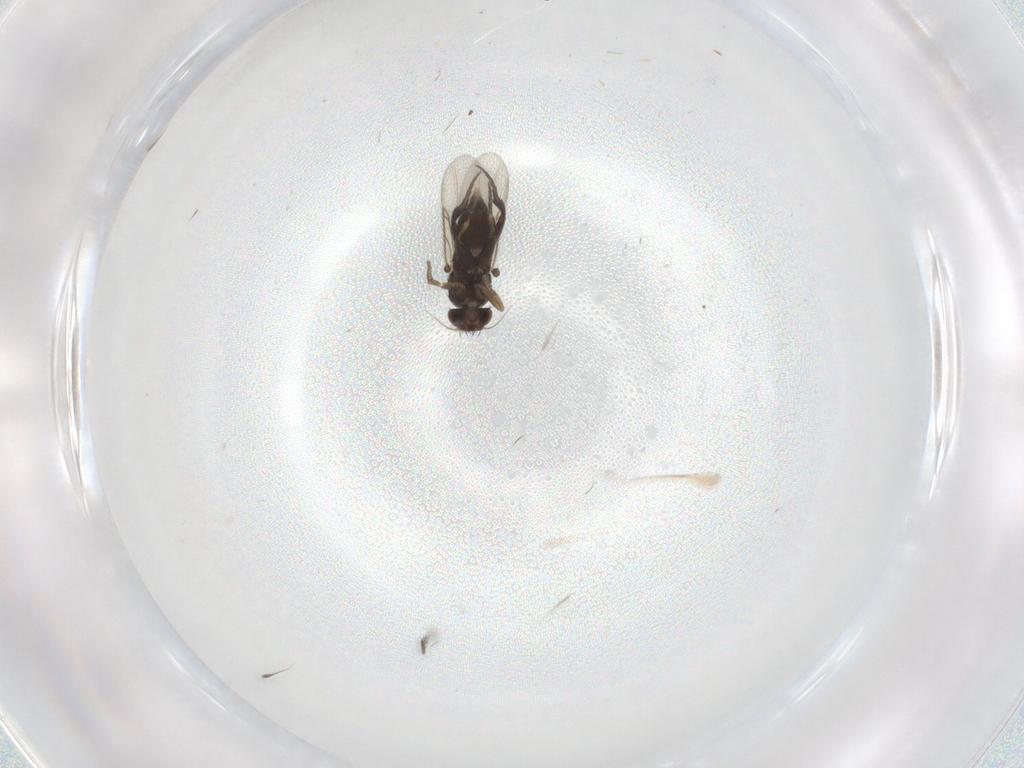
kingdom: Animalia
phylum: Arthropoda
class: Insecta
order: Diptera
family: Phoridae
